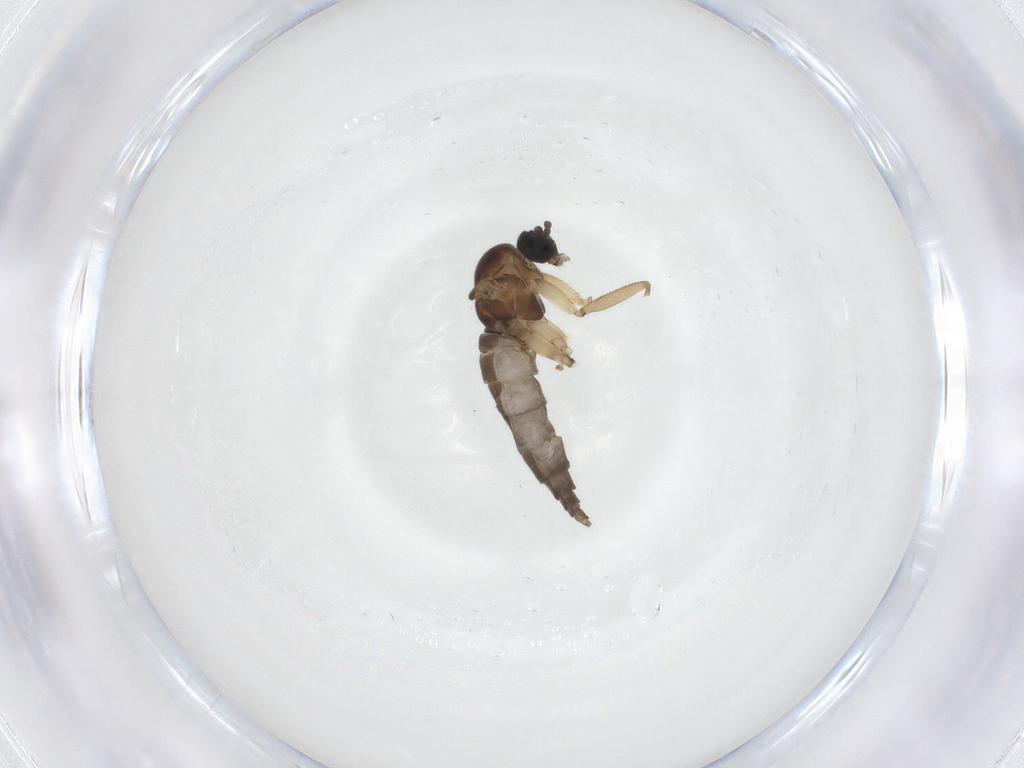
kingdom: Animalia
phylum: Arthropoda
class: Insecta
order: Diptera
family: Sciaridae
